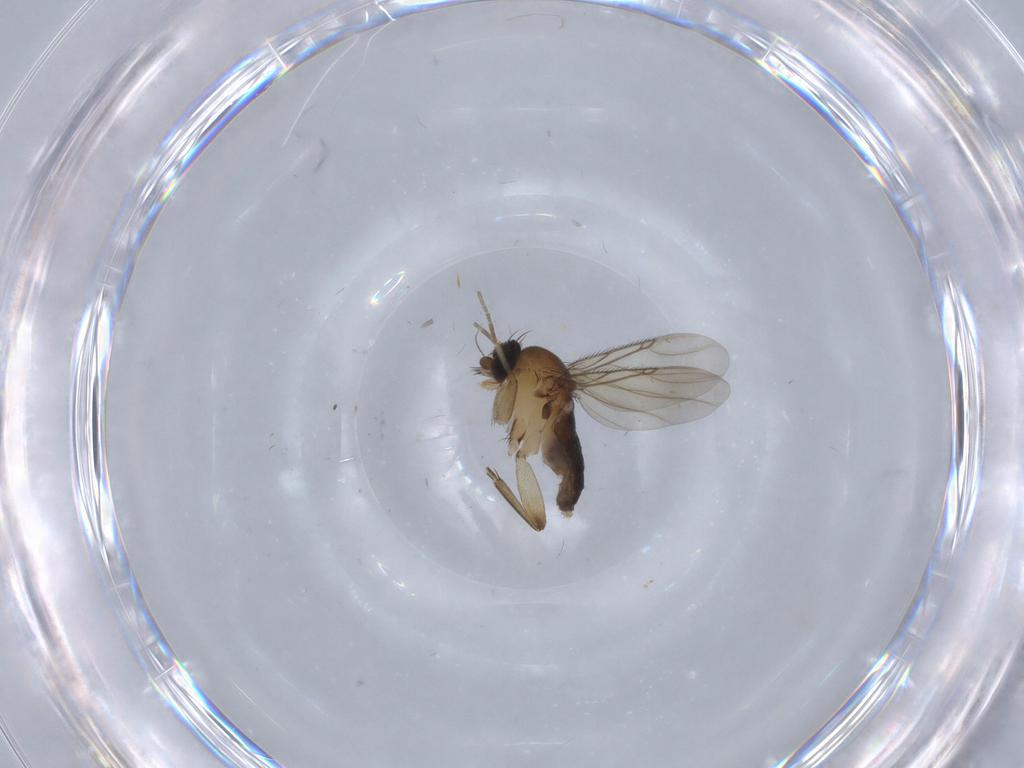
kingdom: Animalia
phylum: Arthropoda
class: Insecta
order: Diptera
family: Phoridae
